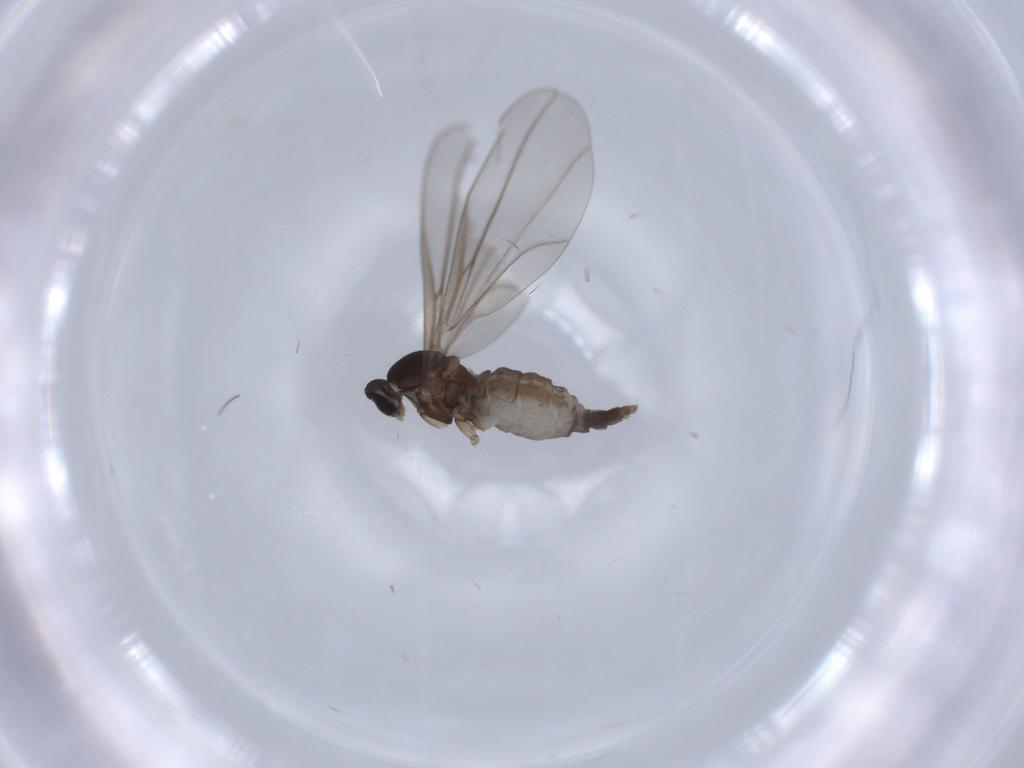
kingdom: Animalia
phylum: Arthropoda
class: Insecta
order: Diptera
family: Cecidomyiidae
